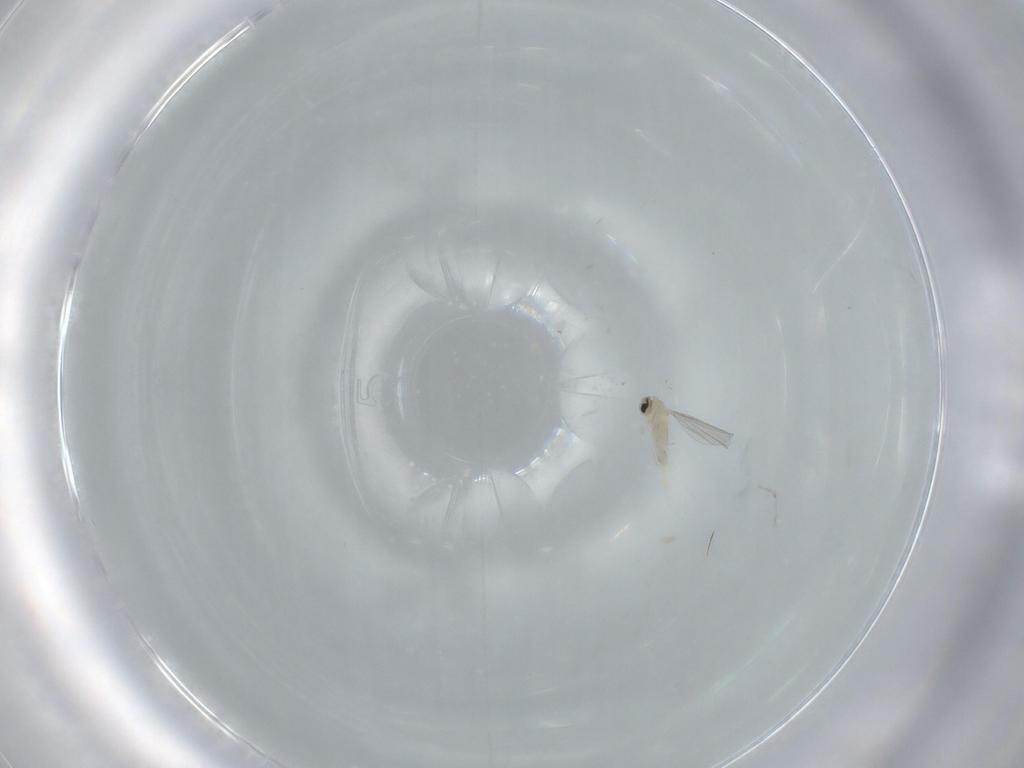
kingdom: Animalia
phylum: Arthropoda
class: Insecta
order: Diptera
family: Cecidomyiidae
